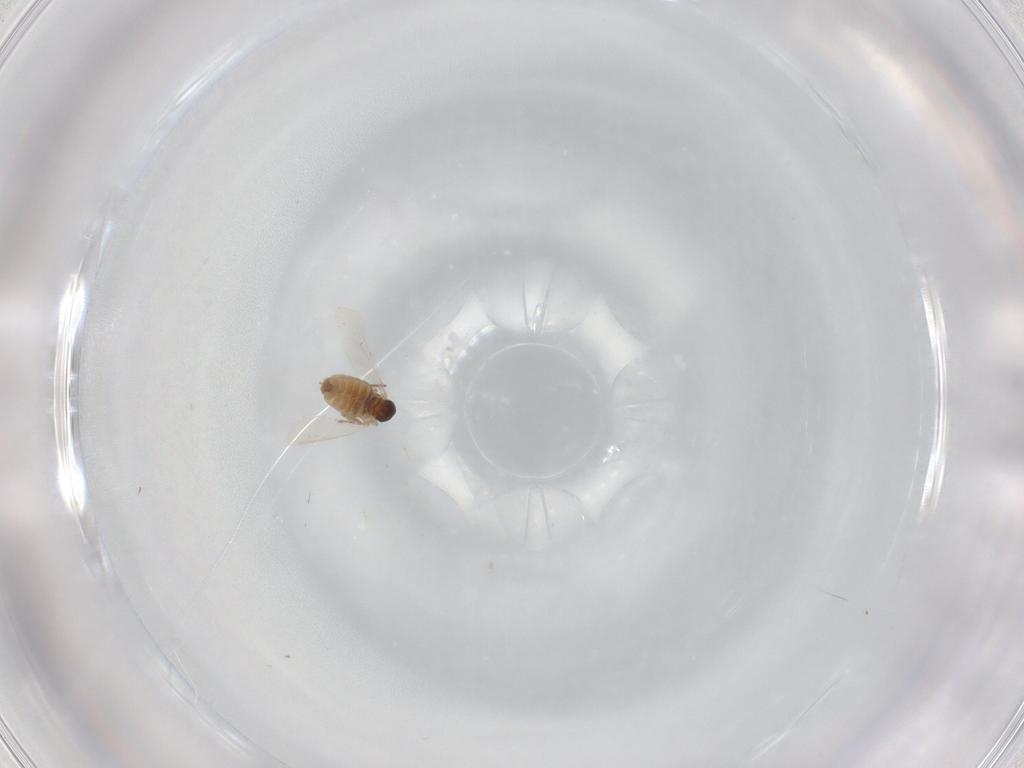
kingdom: Animalia
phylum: Arthropoda
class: Insecta
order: Diptera
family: Cecidomyiidae
